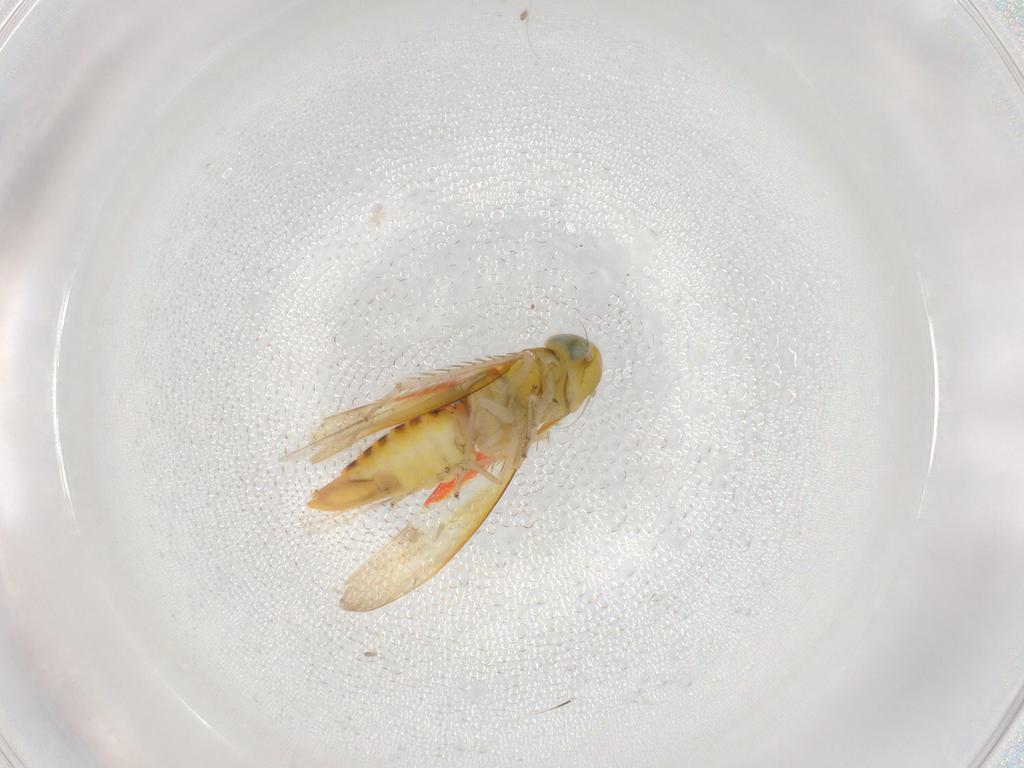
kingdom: Animalia
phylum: Arthropoda
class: Insecta
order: Hemiptera
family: Cicadellidae
